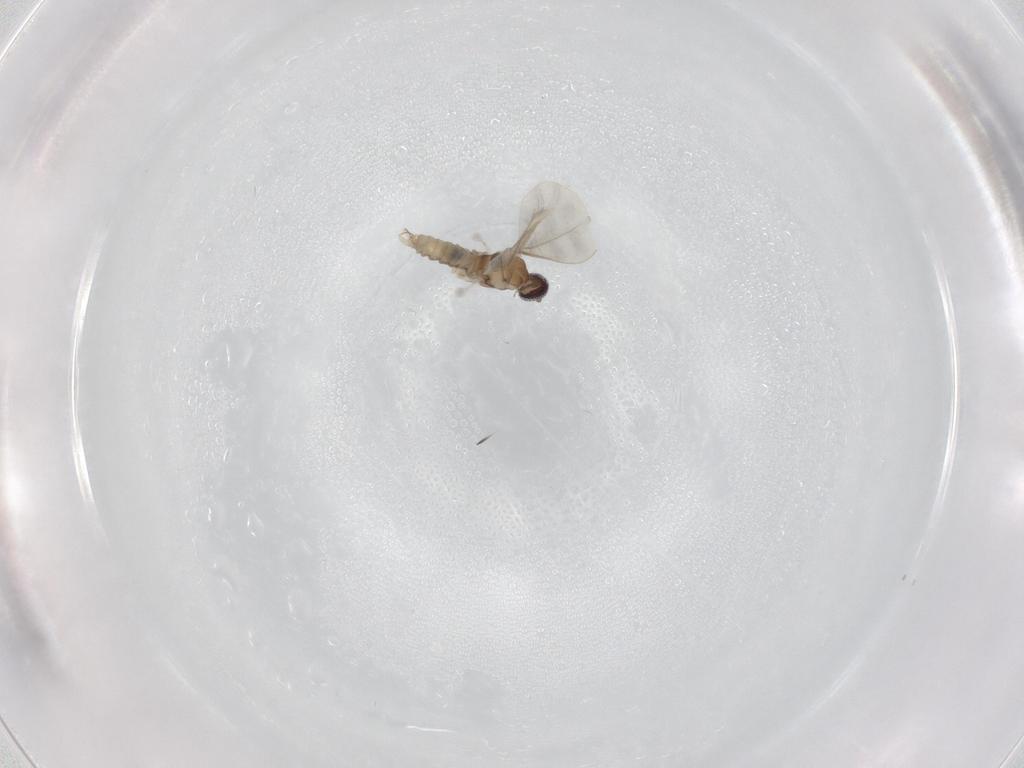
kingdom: Animalia
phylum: Arthropoda
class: Insecta
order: Diptera
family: Cecidomyiidae
